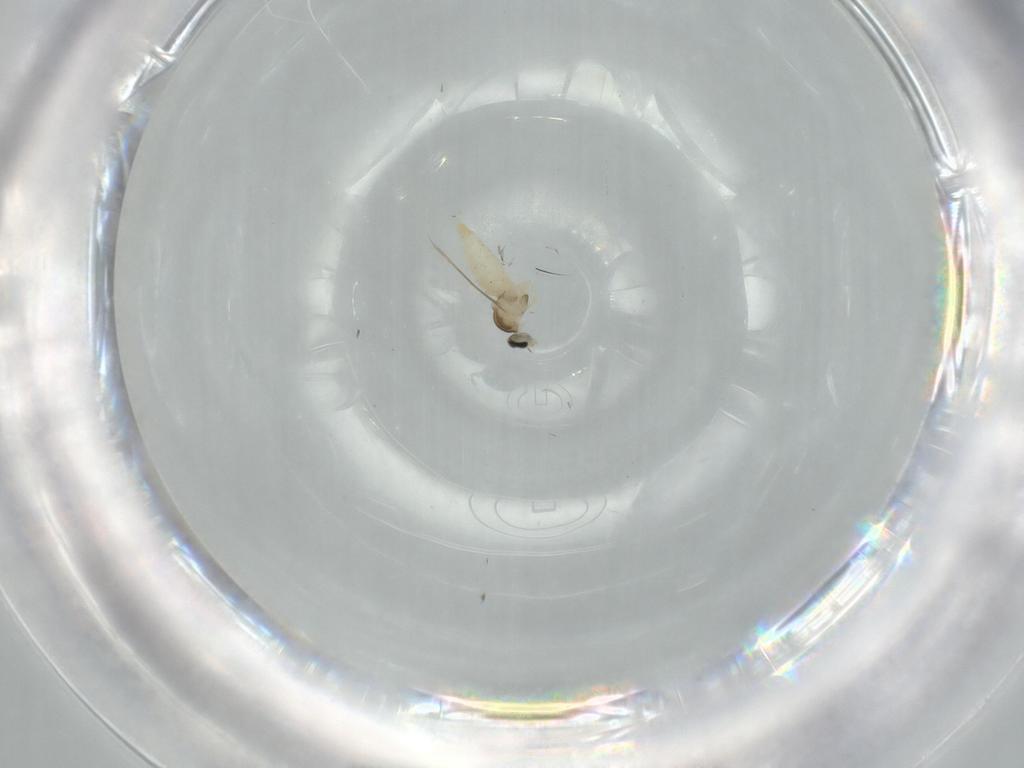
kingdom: Animalia
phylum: Arthropoda
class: Insecta
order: Diptera
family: Cecidomyiidae
